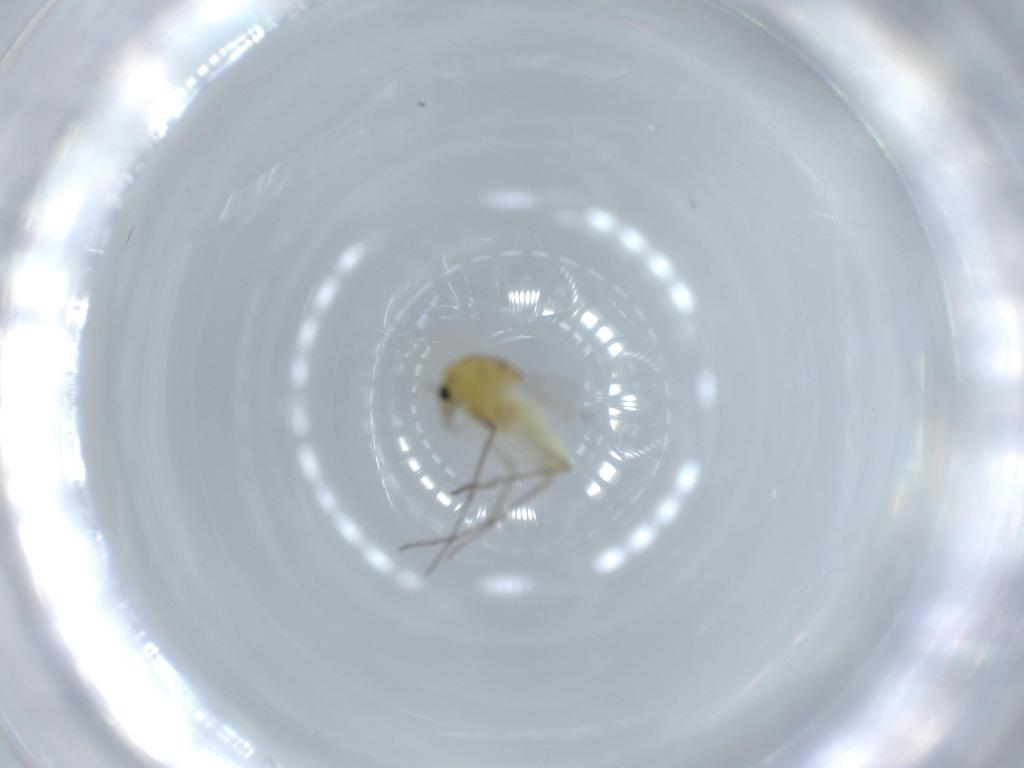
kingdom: Animalia
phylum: Arthropoda
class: Insecta
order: Diptera
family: Chironomidae
